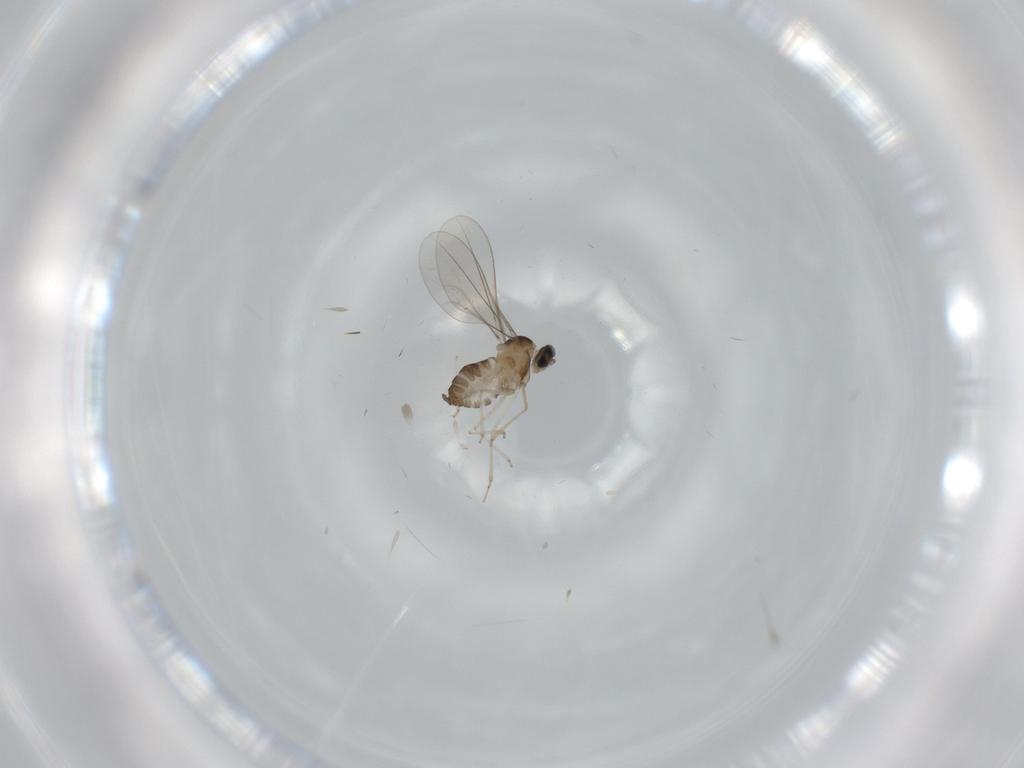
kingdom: Animalia
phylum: Arthropoda
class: Insecta
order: Diptera
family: Cecidomyiidae
